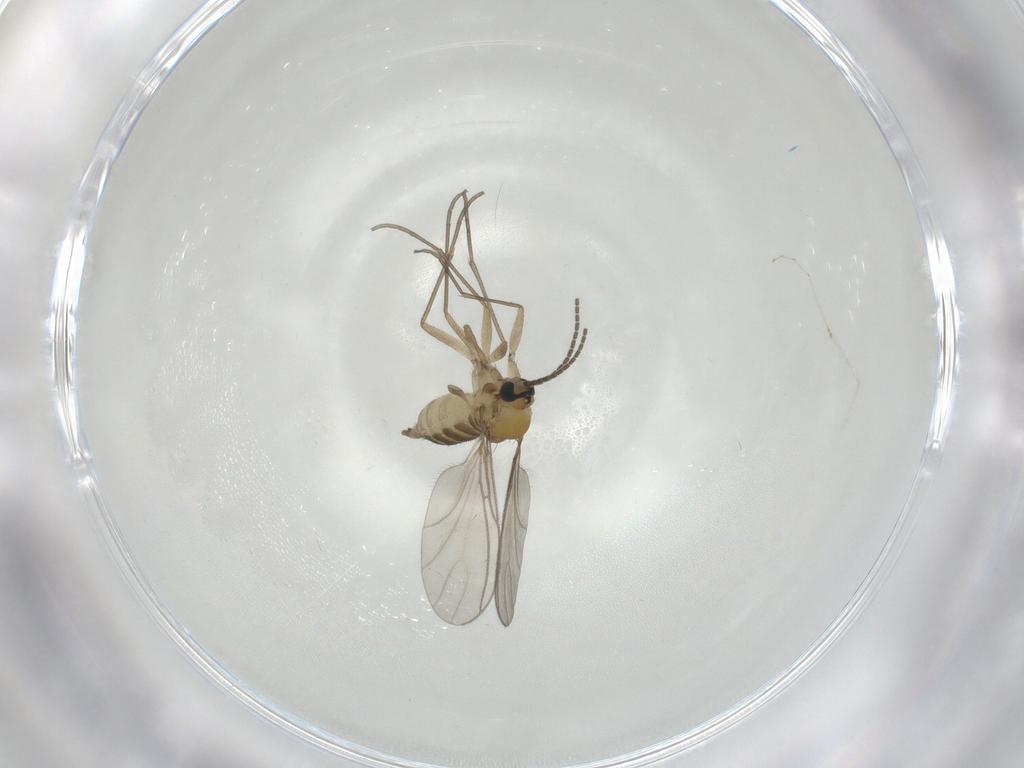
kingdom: Animalia
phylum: Arthropoda
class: Insecta
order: Diptera
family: Sciaridae
